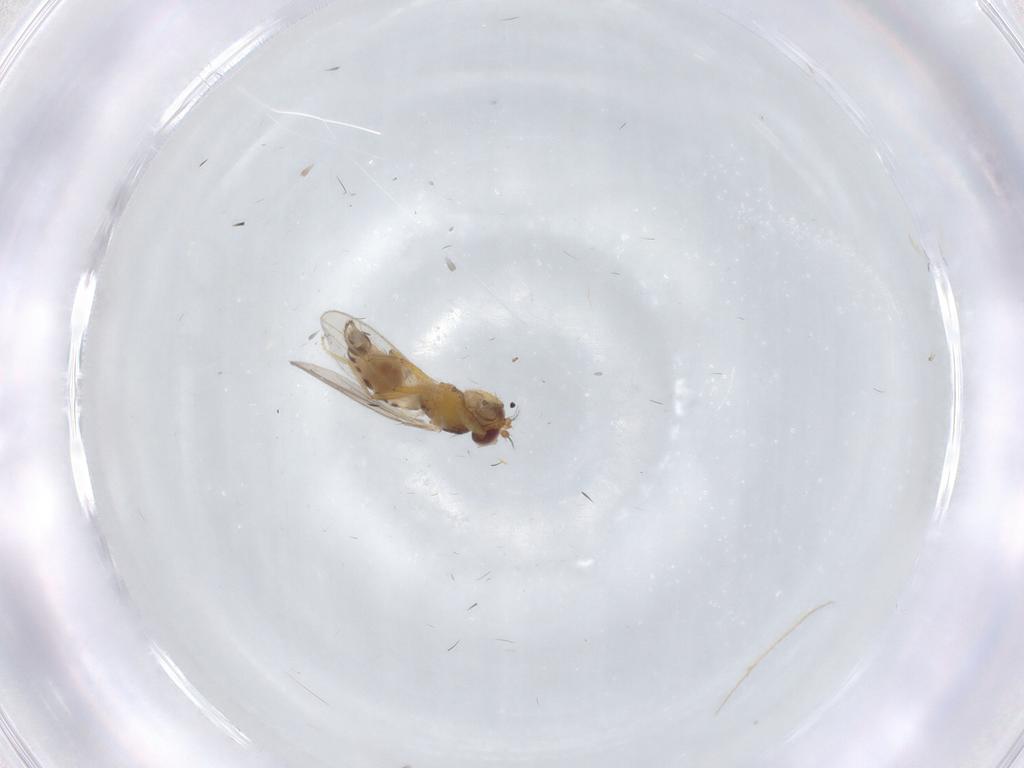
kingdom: Animalia
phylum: Arthropoda
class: Insecta
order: Diptera
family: Periscelididae
